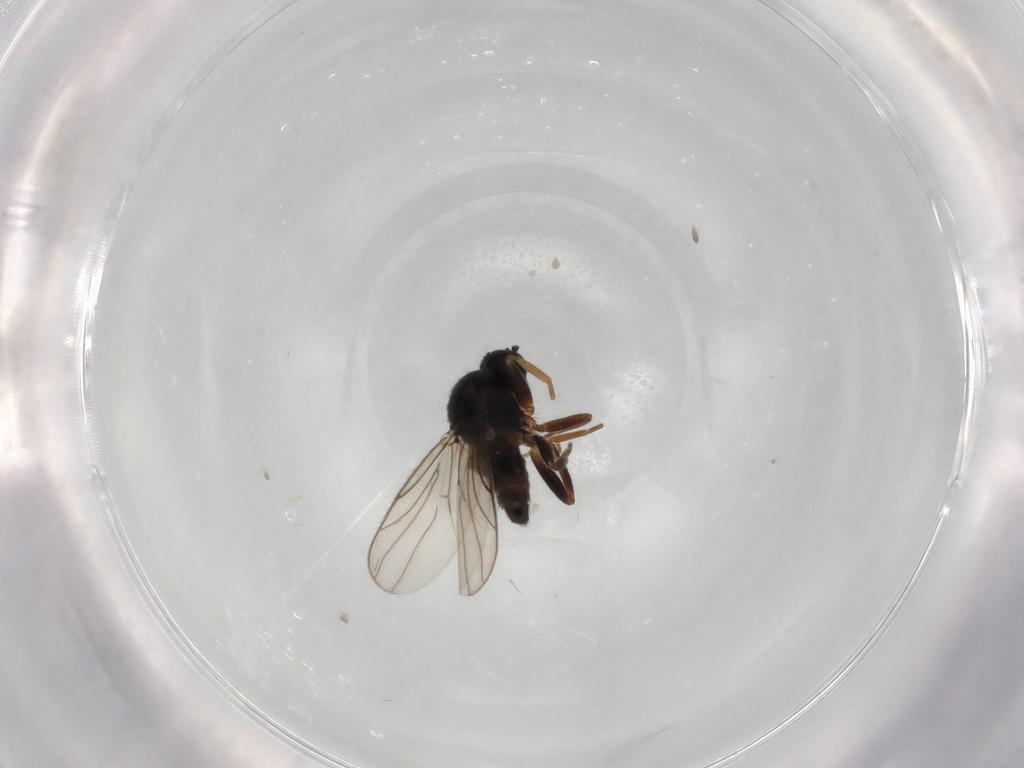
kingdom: Animalia
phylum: Arthropoda
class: Insecta
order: Diptera
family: Hybotidae
